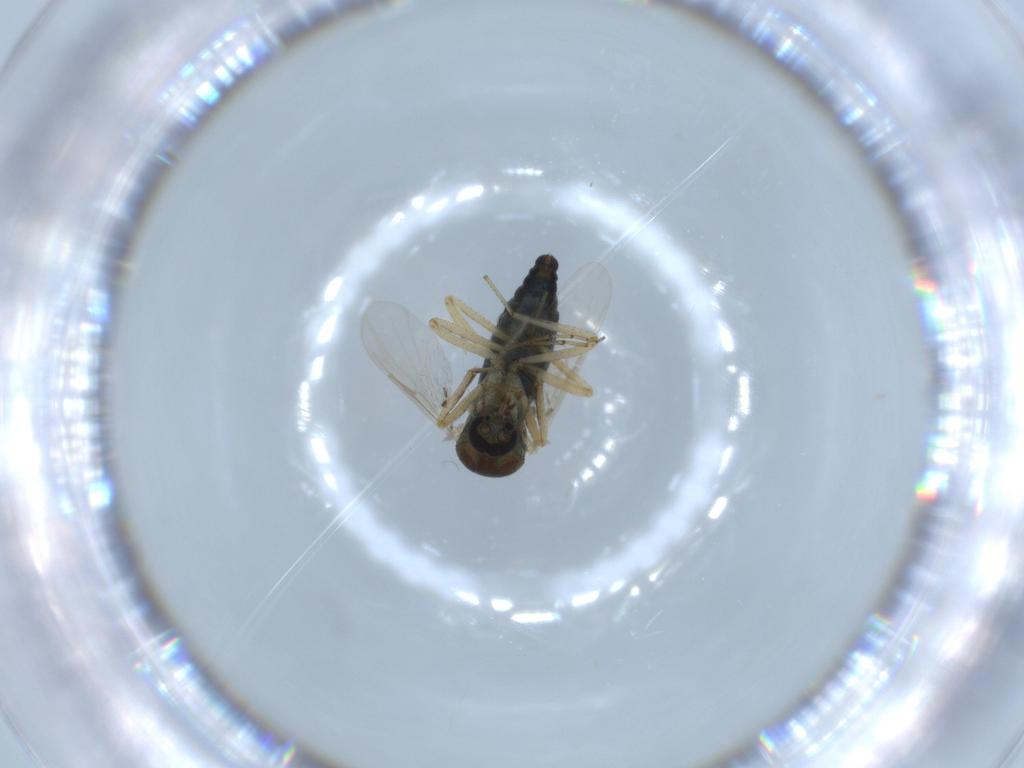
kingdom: Animalia
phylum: Arthropoda
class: Insecta
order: Diptera
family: Ceratopogonidae
